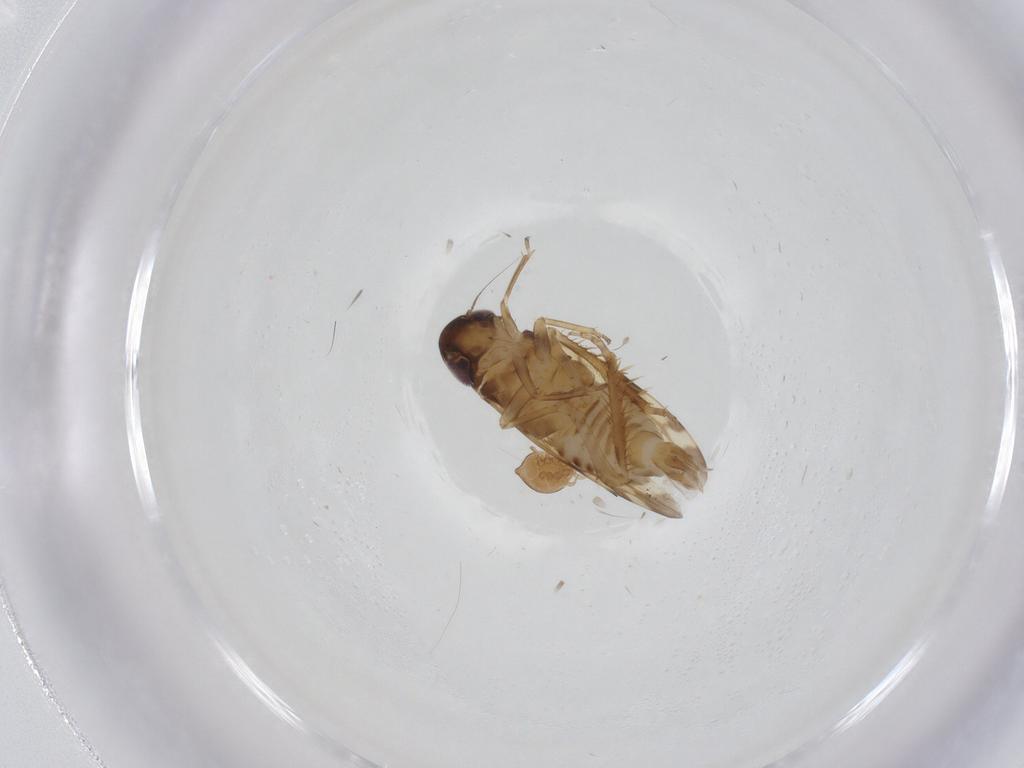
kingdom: Animalia
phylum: Arthropoda
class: Insecta
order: Hemiptera
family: Cicadellidae
